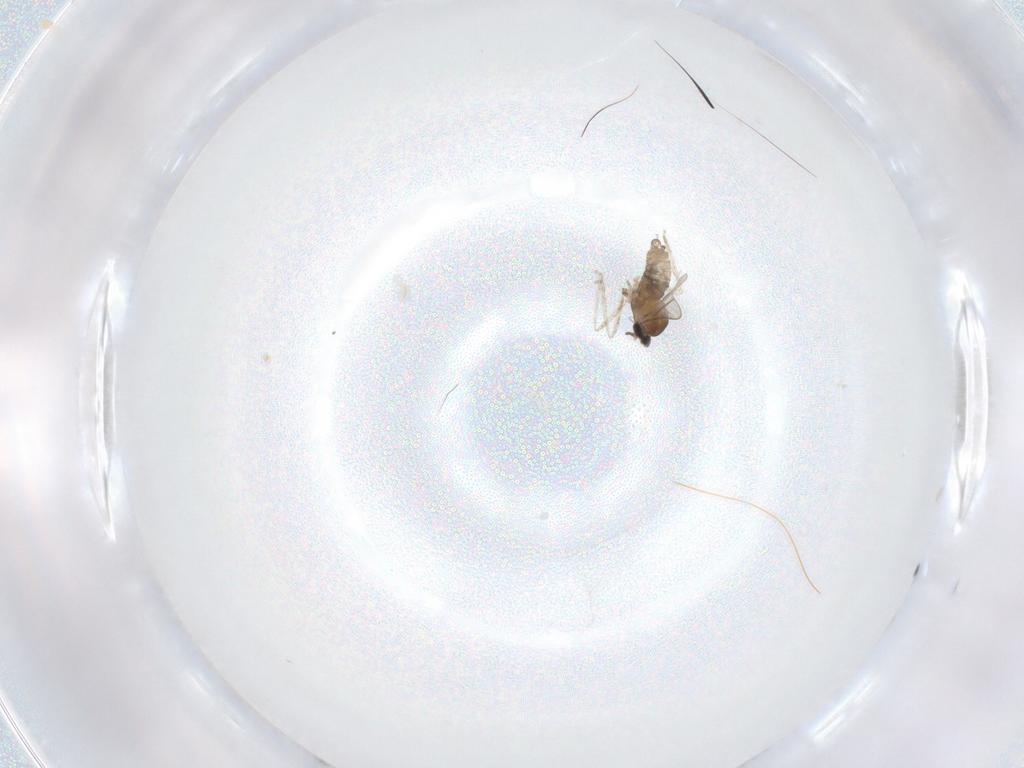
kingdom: Animalia
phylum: Arthropoda
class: Insecta
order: Diptera
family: Cecidomyiidae
